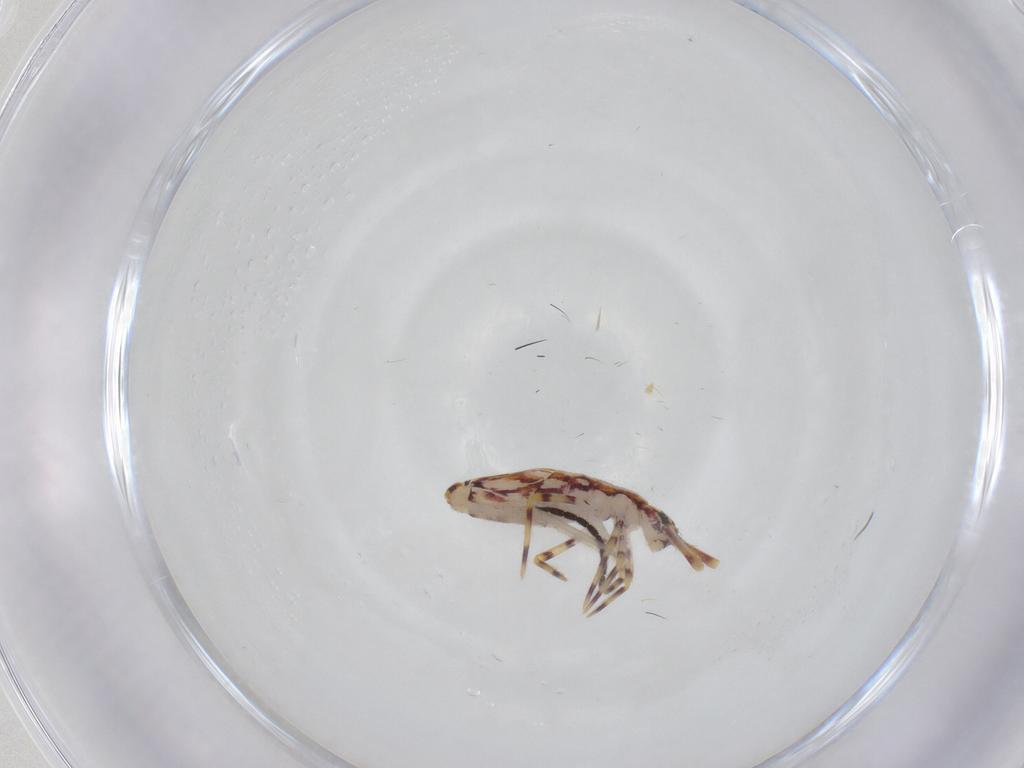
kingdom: Animalia
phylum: Arthropoda
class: Collembola
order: Entomobryomorpha
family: Entomobryidae
